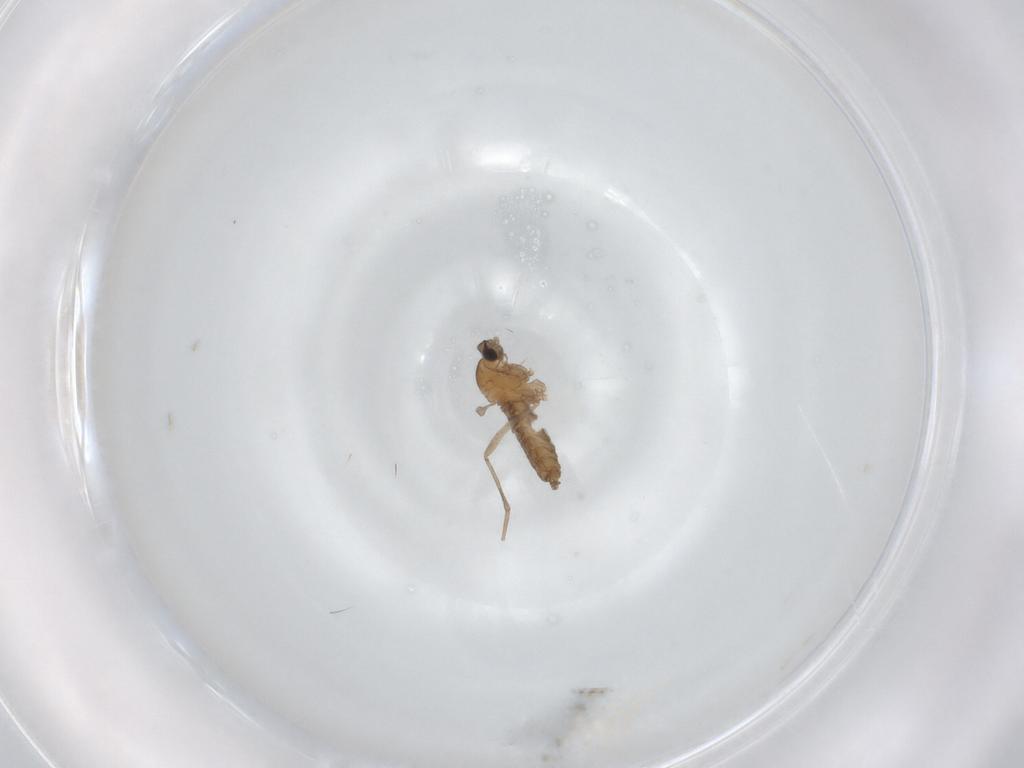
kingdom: Animalia
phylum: Arthropoda
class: Insecta
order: Diptera
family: Cecidomyiidae
